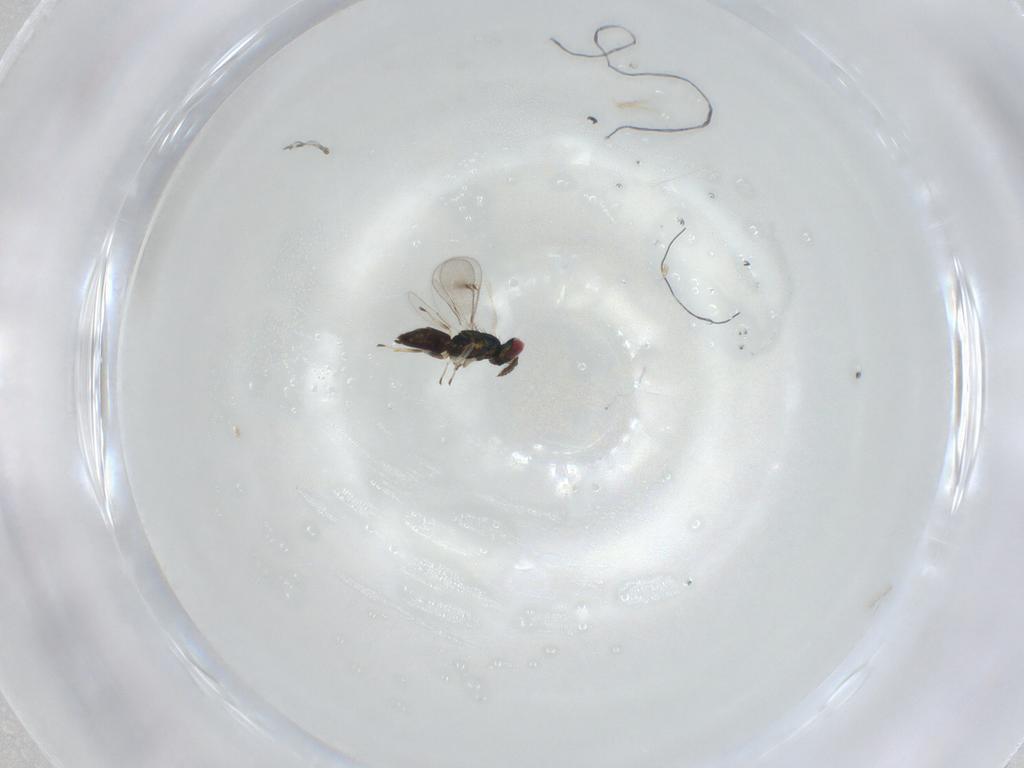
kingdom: Animalia
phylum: Arthropoda
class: Insecta
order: Hymenoptera
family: Eulophidae
